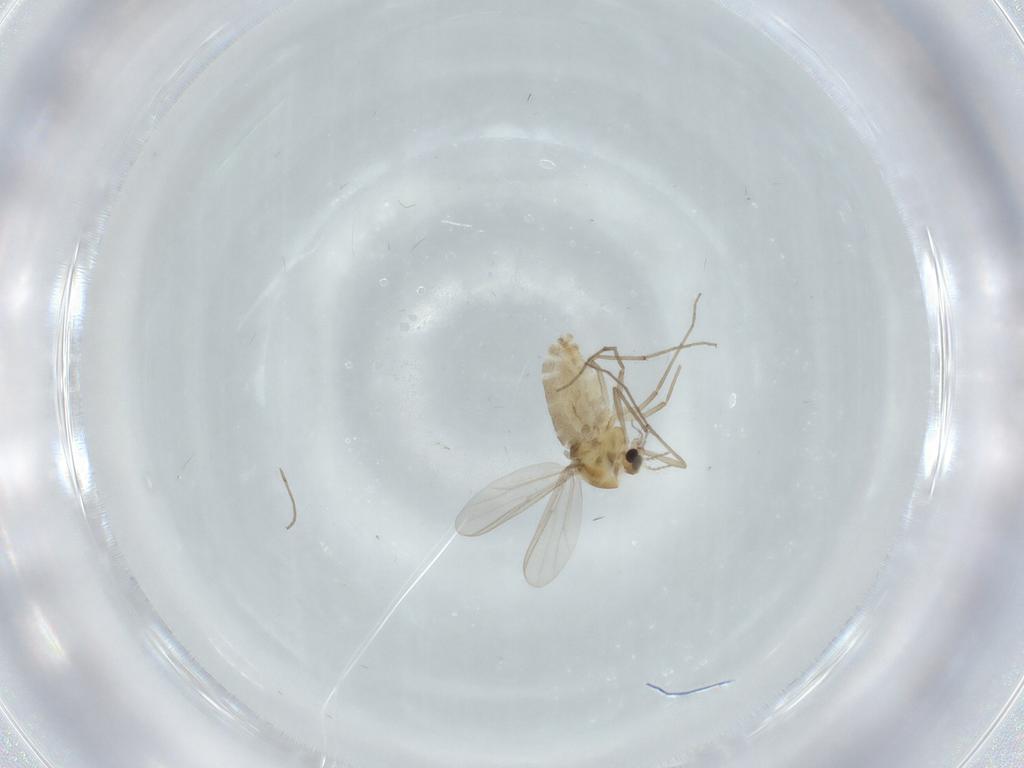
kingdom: Animalia
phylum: Arthropoda
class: Insecta
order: Diptera
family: Chironomidae
